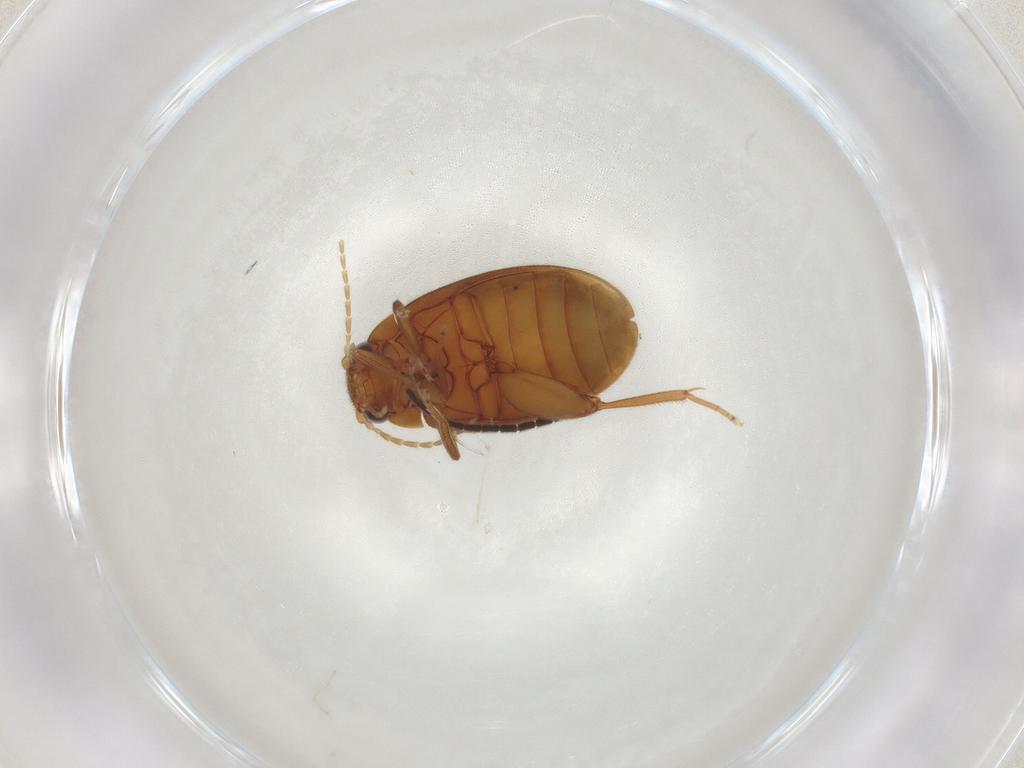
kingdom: Animalia
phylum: Arthropoda
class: Insecta
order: Coleoptera
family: Scirtidae
